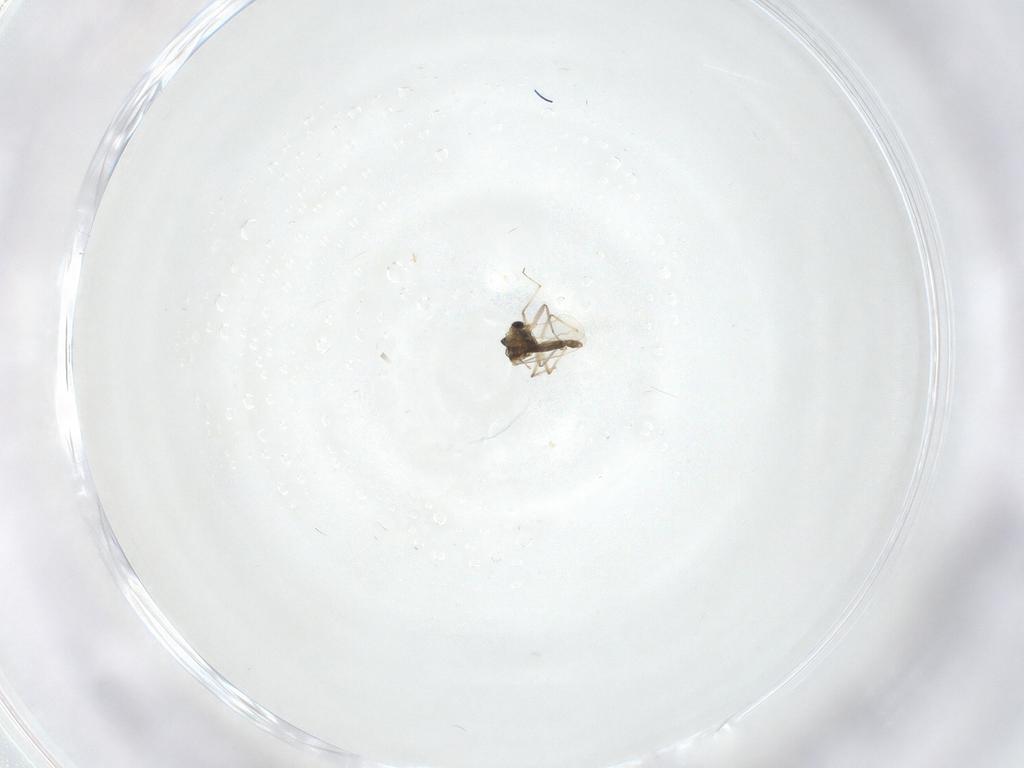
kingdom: Animalia
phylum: Arthropoda
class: Insecta
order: Diptera
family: Chironomidae
